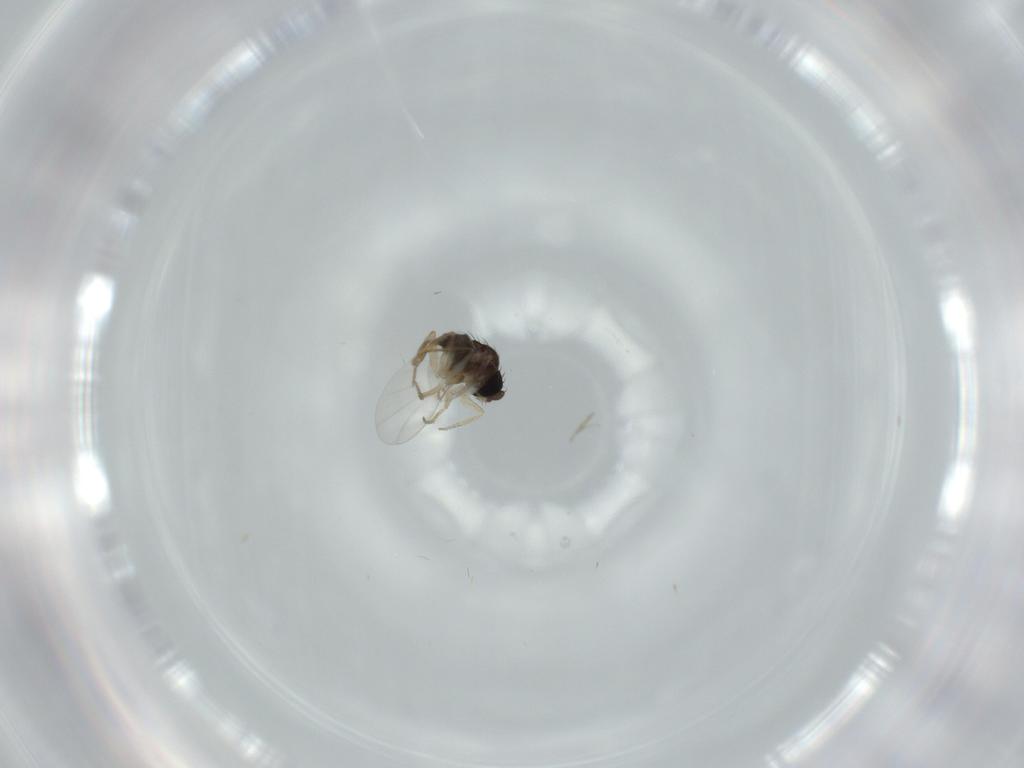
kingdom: Animalia
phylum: Arthropoda
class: Insecta
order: Diptera
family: Phoridae
